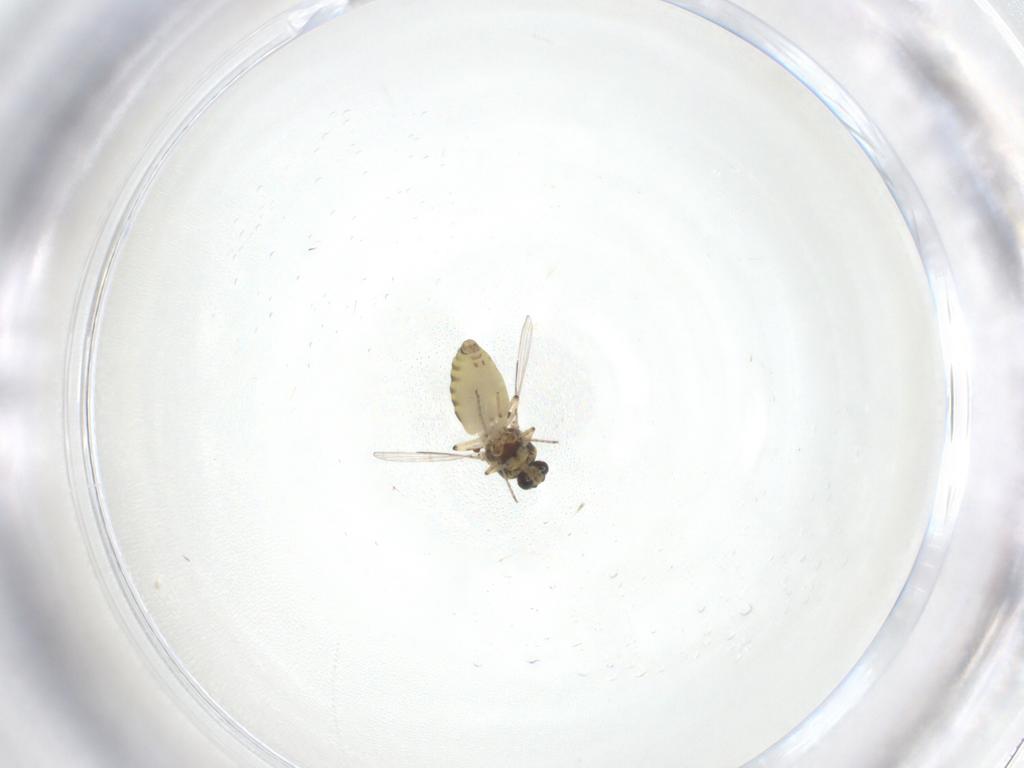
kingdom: Animalia
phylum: Arthropoda
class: Insecta
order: Diptera
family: Ceratopogonidae
